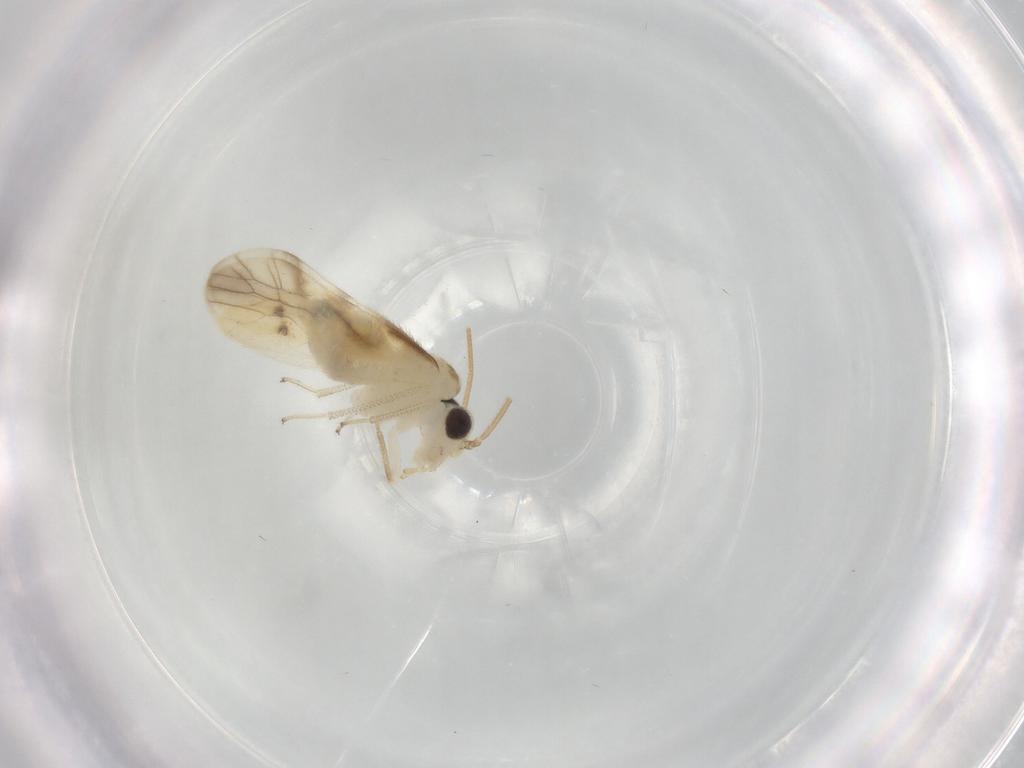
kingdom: Animalia
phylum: Arthropoda
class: Insecta
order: Psocodea
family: Caeciliusidae
